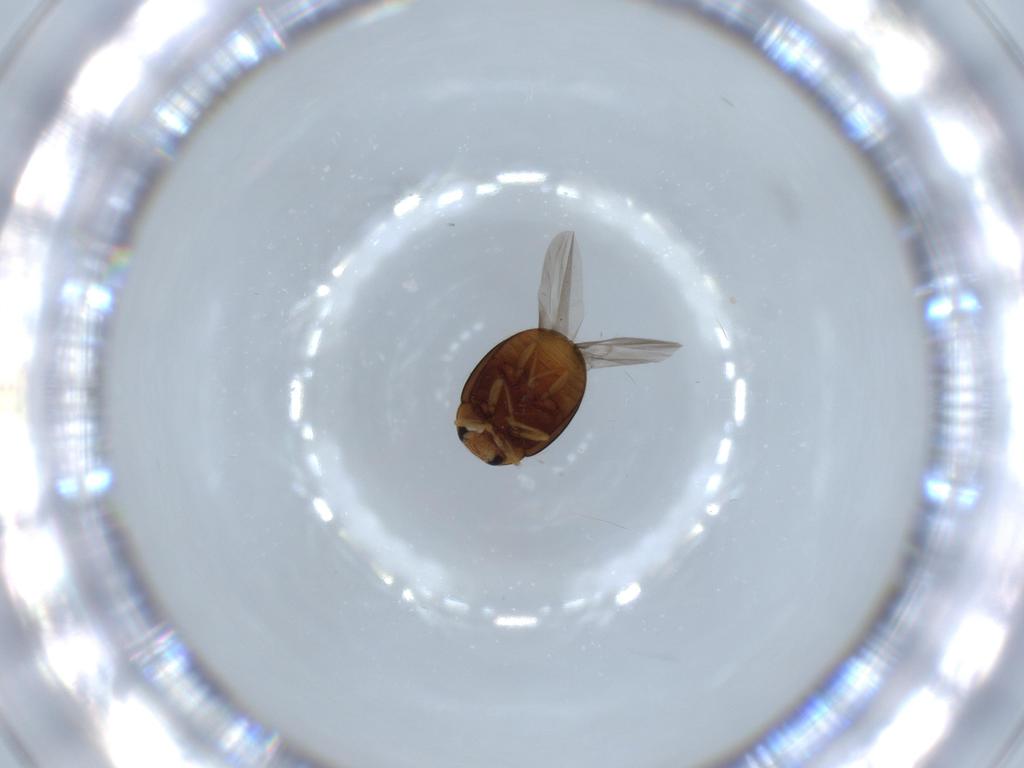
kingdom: Animalia
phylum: Arthropoda
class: Insecta
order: Coleoptera
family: Coccinellidae
